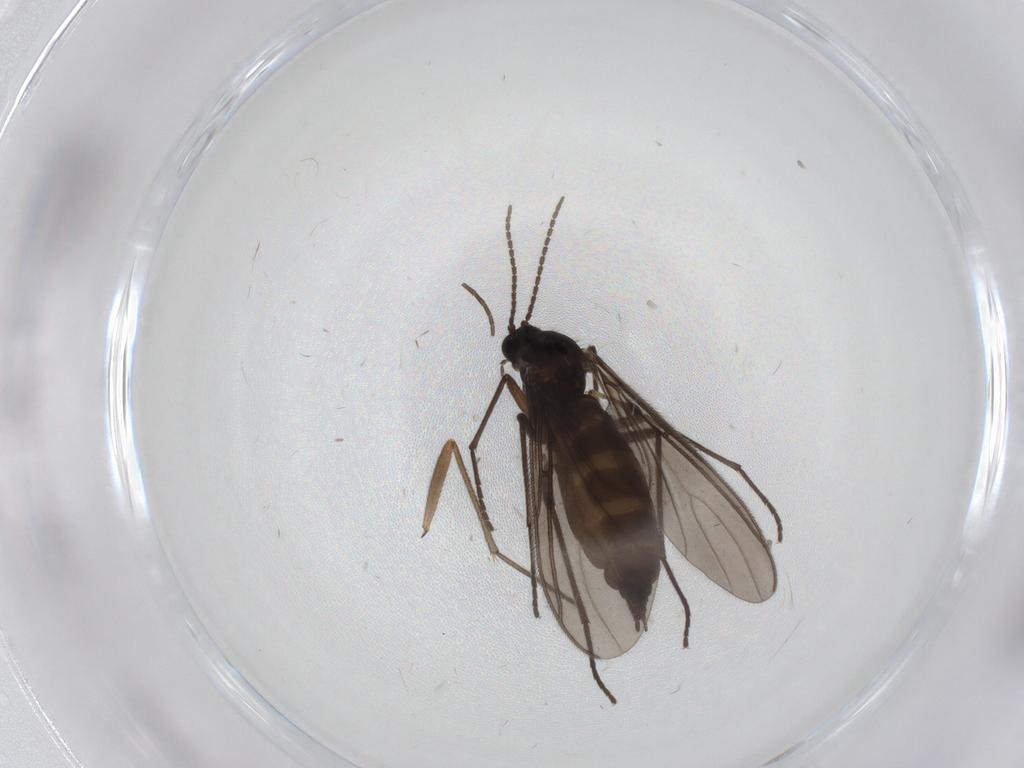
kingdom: Animalia
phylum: Arthropoda
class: Insecta
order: Diptera
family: Sciaridae
